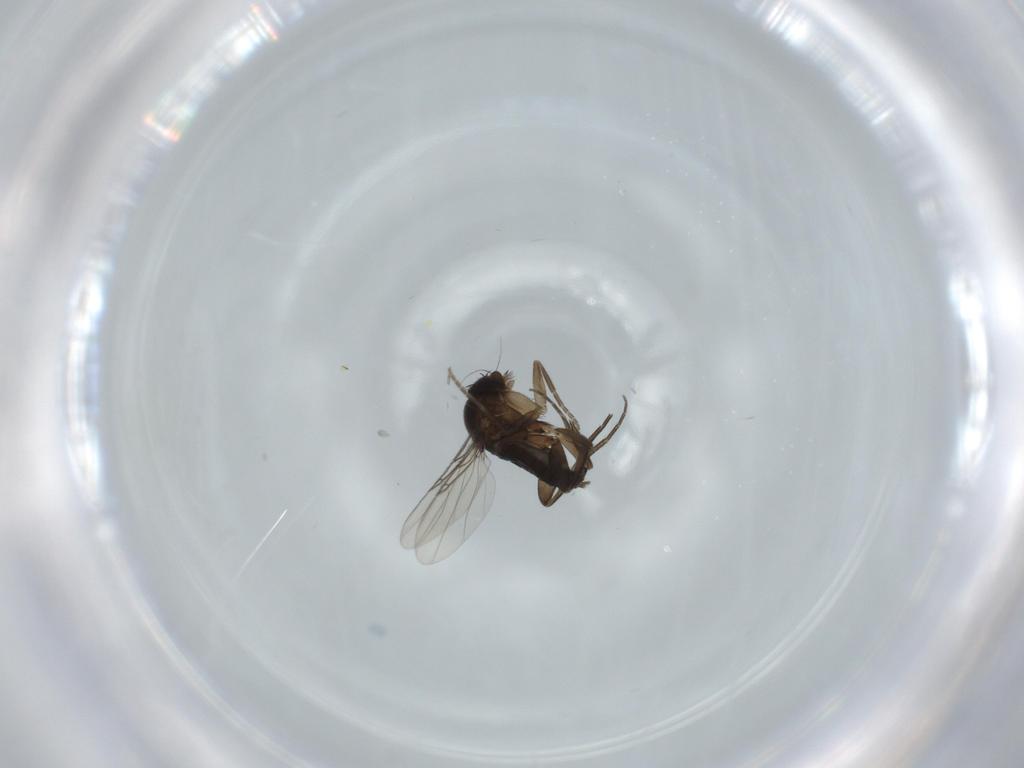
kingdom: Animalia
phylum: Arthropoda
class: Insecta
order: Diptera
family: Phoridae
